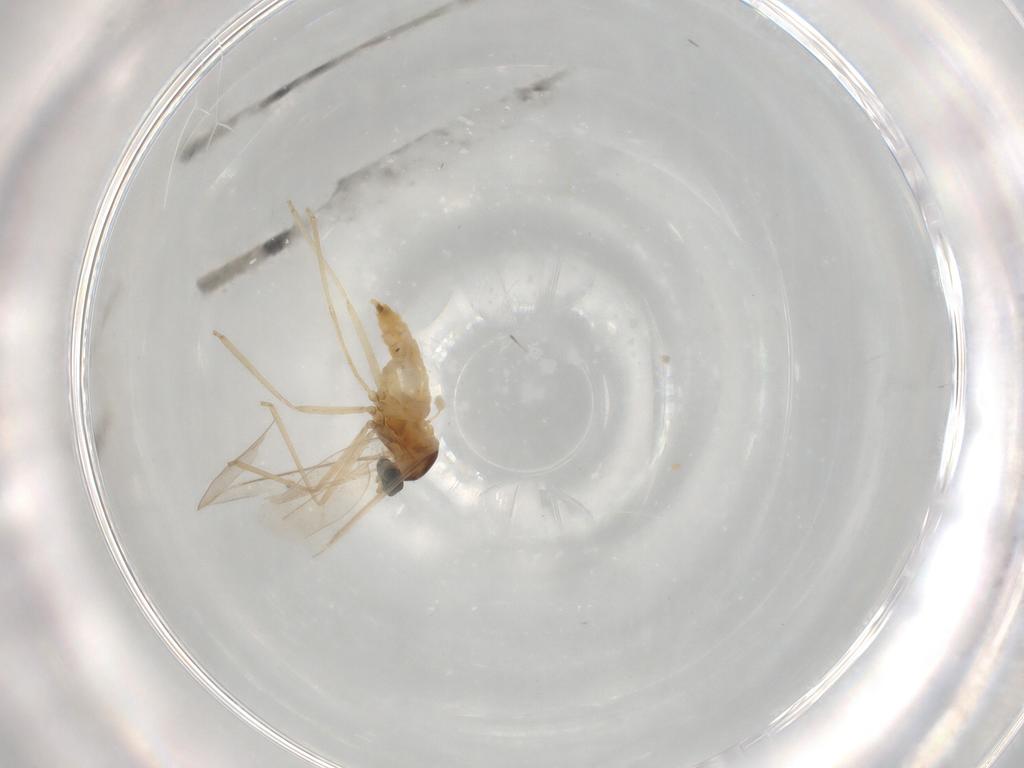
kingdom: Animalia
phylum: Arthropoda
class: Insecta
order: Diptera
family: Cecidomyiidae
